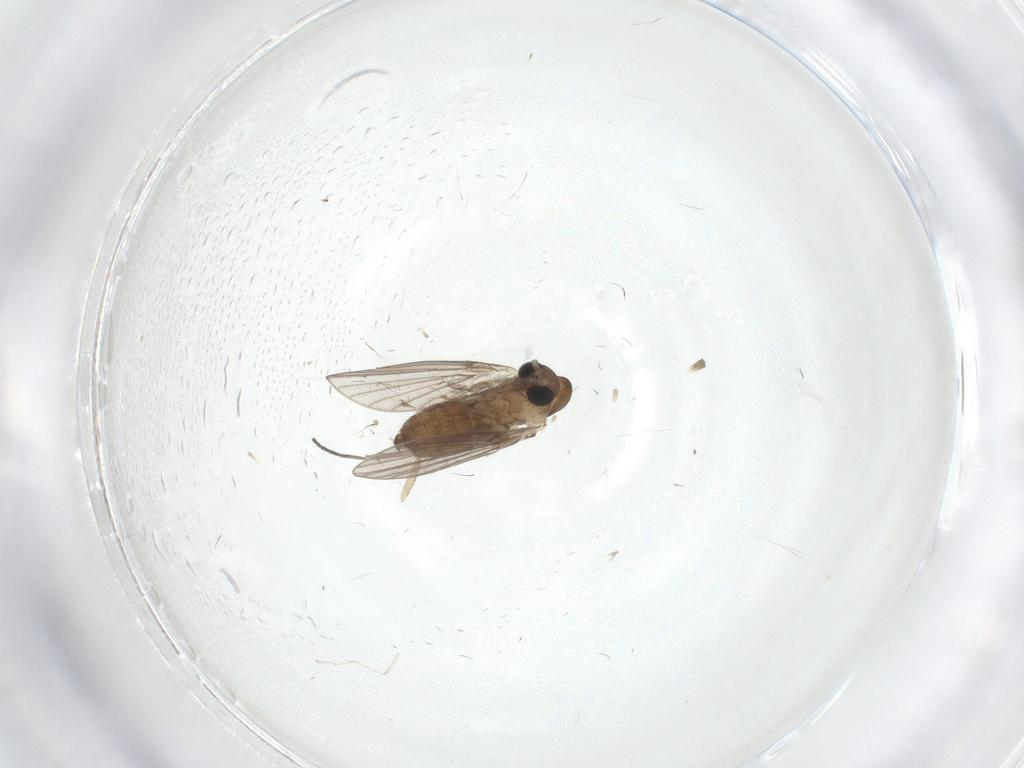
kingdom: Animalia
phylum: Arthropoda
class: Insecta
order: Diptera
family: Psychodidae
